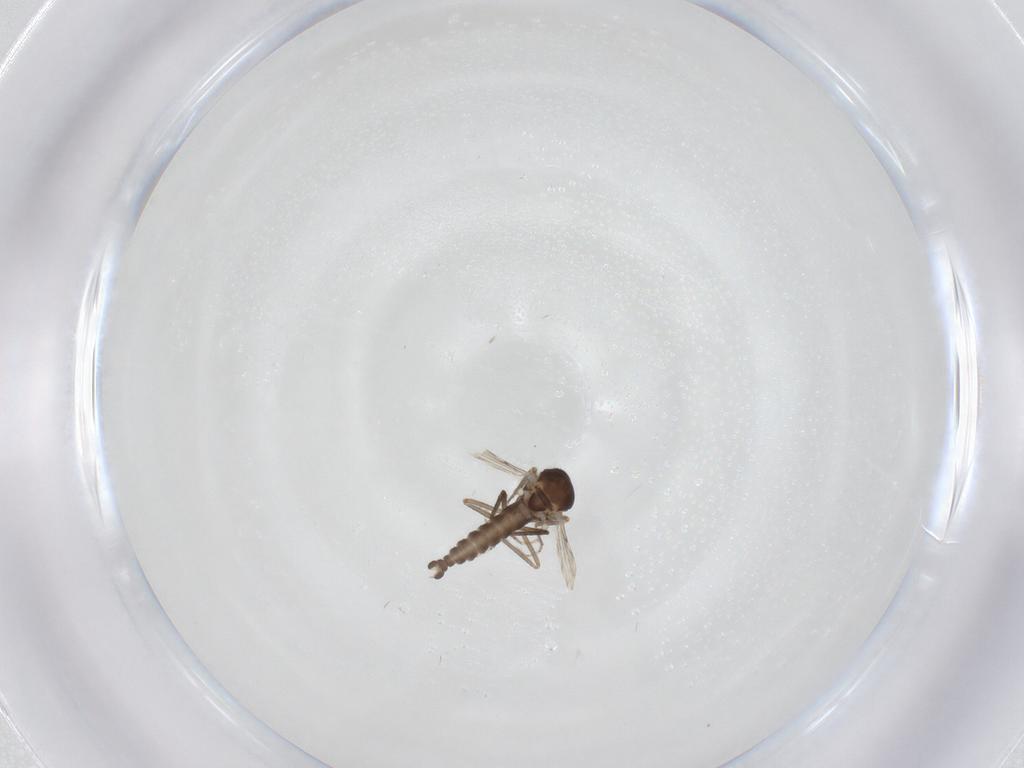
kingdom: Animalia
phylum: Arthropoda
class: Insecta
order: Diptera
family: Ceratopogonidae
